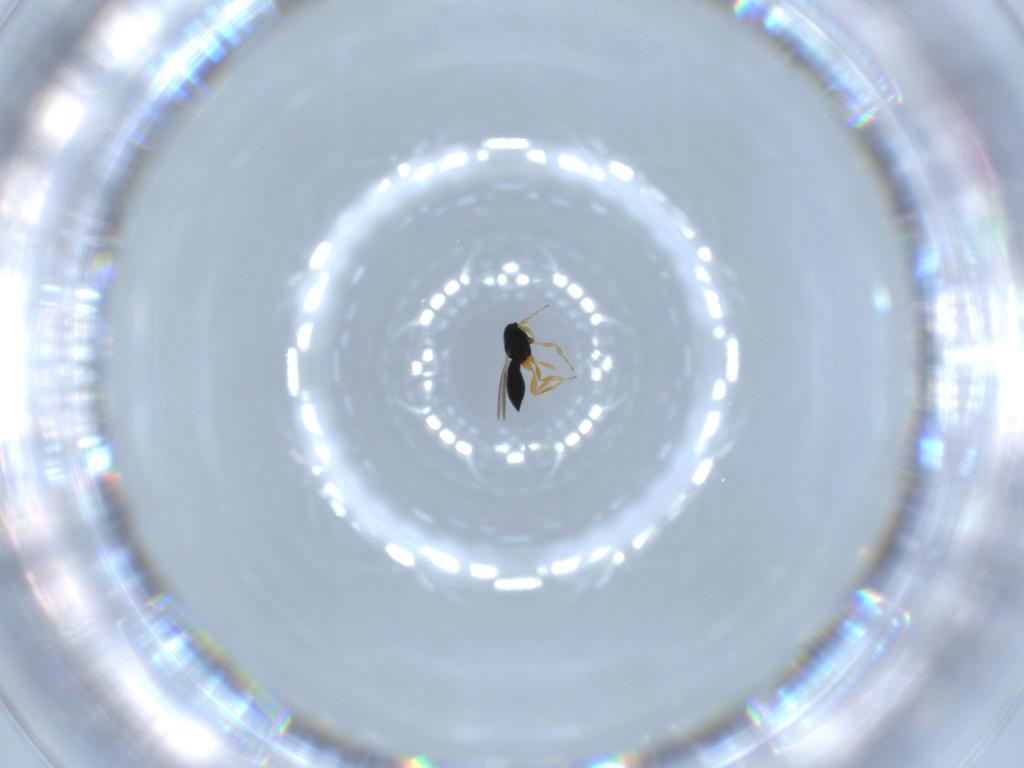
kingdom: Animalia
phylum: Arthropoda
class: Insecta
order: Hymenoptera
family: Scelionidae
